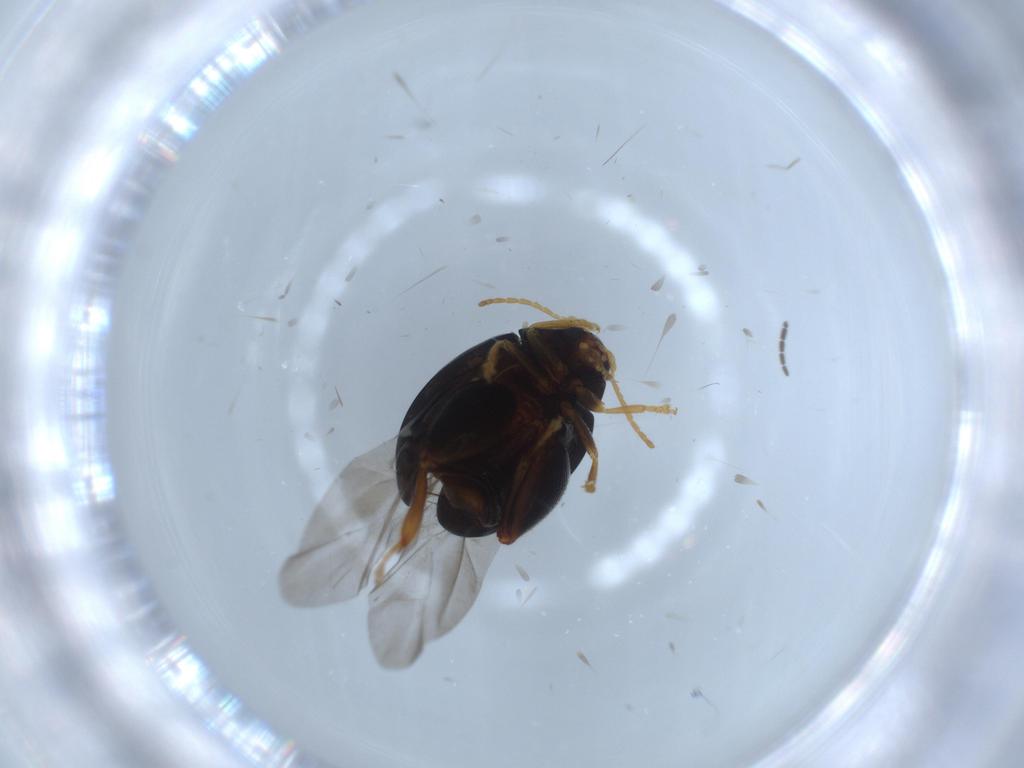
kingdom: Animalia
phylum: Arthropoda
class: Insecta
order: Coleoptera
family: Chrysomelidae
